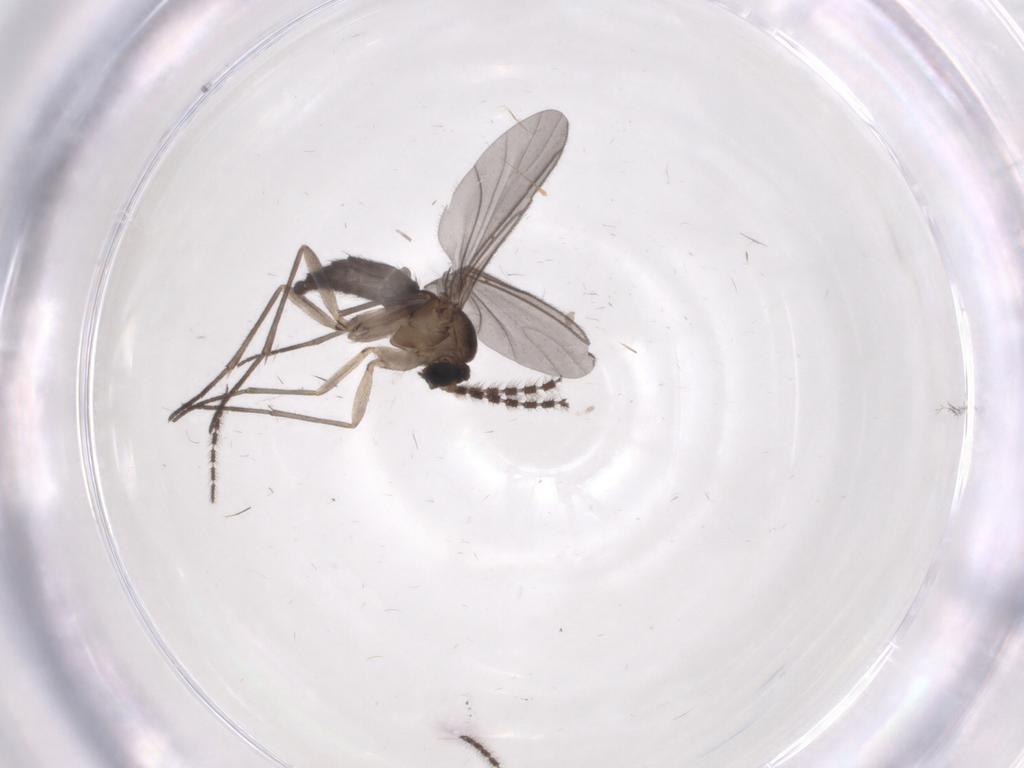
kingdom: Animalia
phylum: Arthropoda
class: Insecta
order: Diptera
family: Sciaridae
